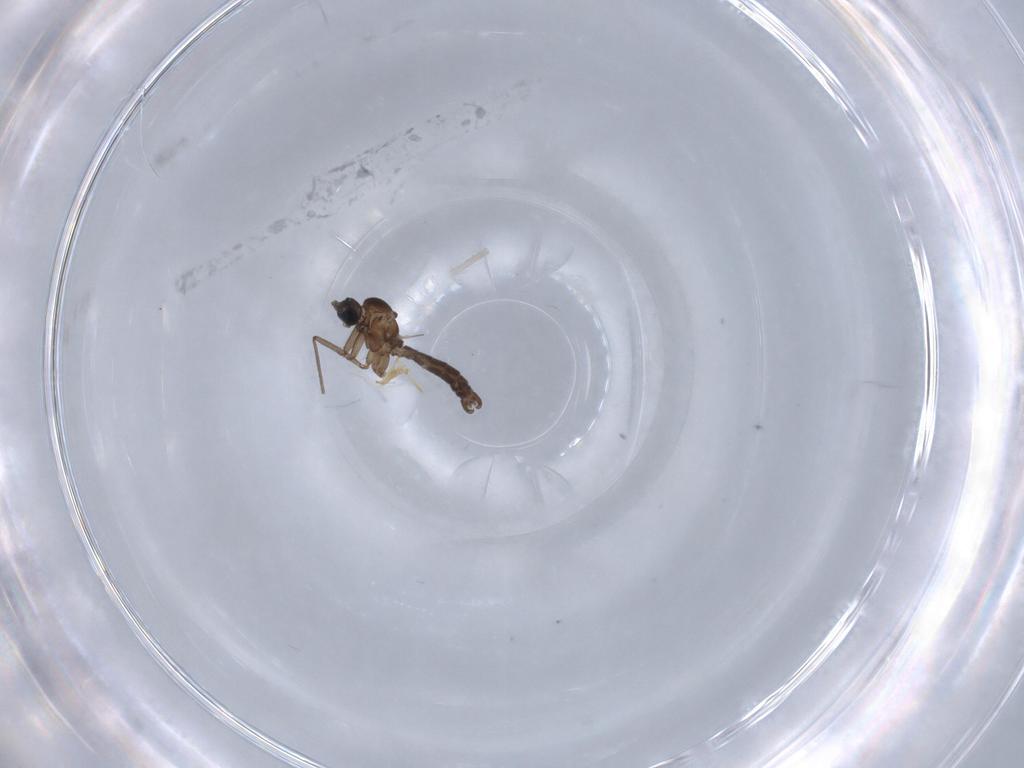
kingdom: Animalia
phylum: Arthropoda
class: Insecta
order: Diptera
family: Sciaridae
